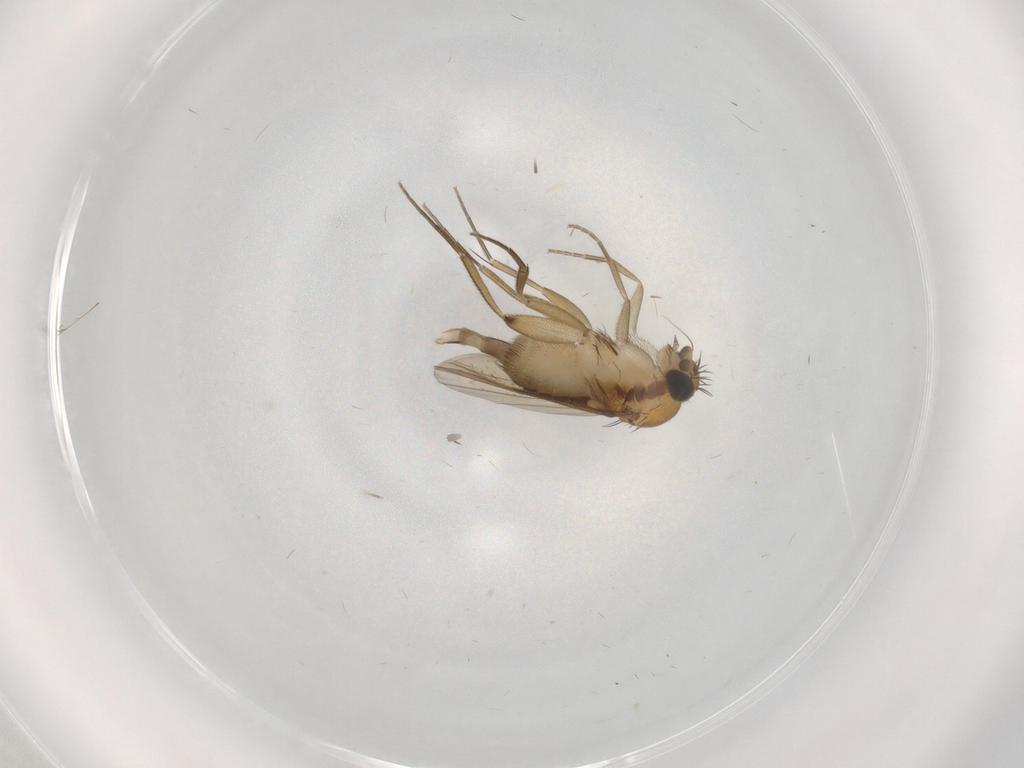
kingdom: Animalia
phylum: Arthropoda
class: Insecta
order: Diptera
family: Phoridae
